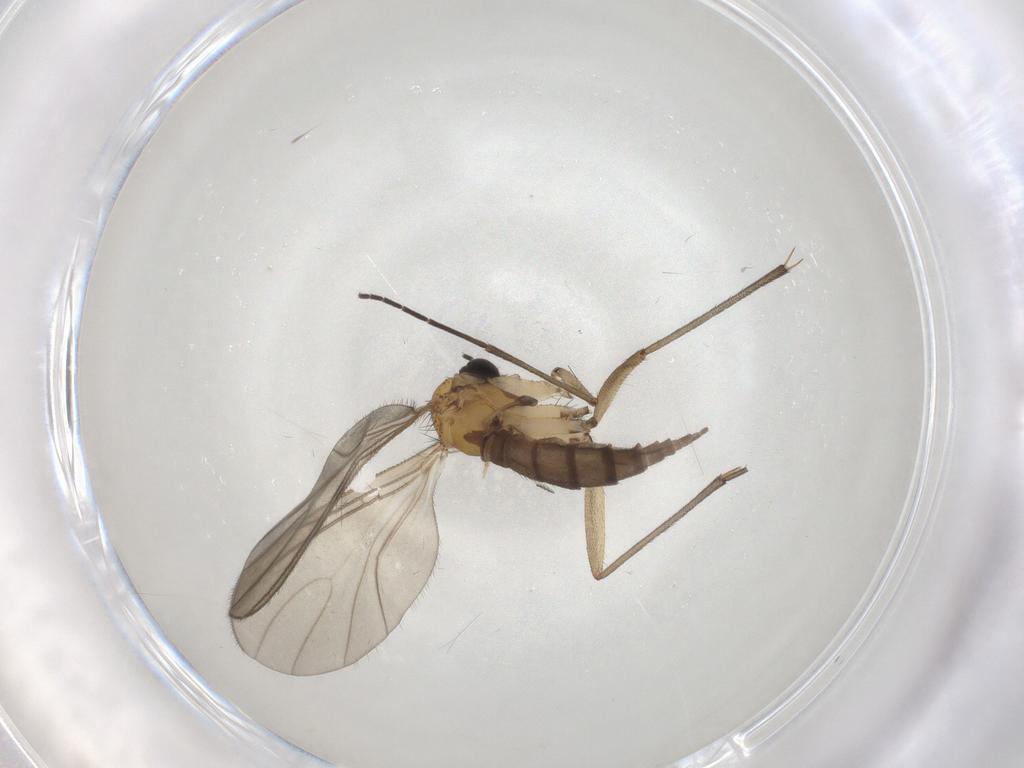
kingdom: Animalia
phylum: Arthropoda
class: Insecta
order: Diptera
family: Sciaridae
